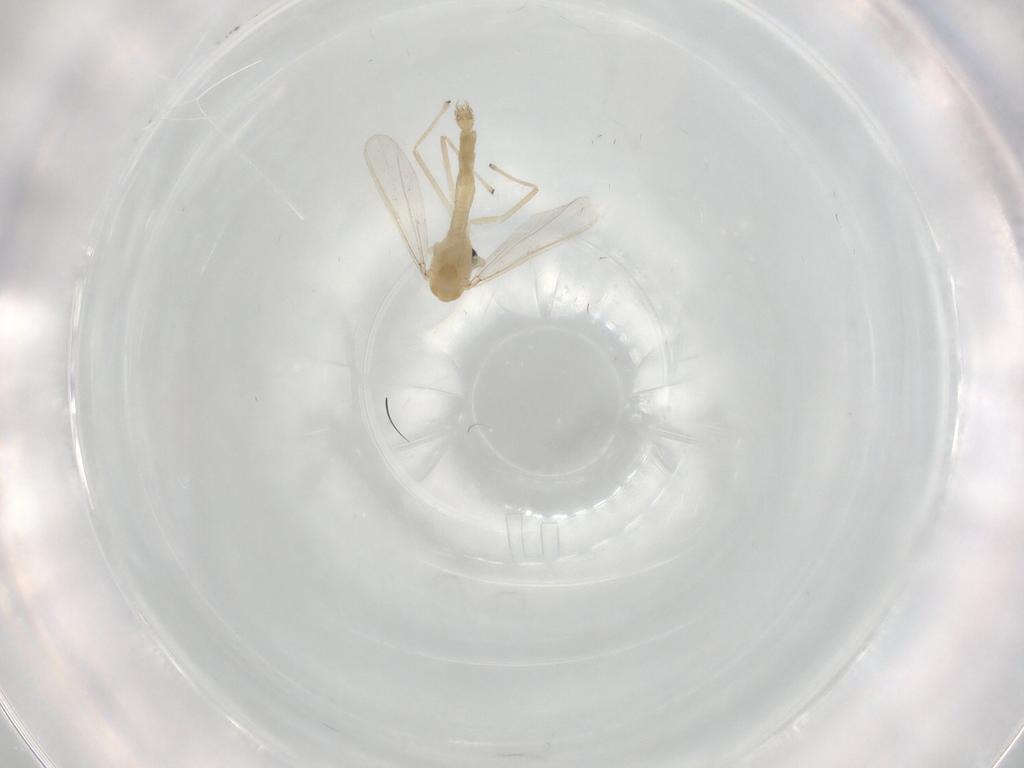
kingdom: Animalia
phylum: Arthropoda
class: Insecta
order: Diptera
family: Chironomidae
